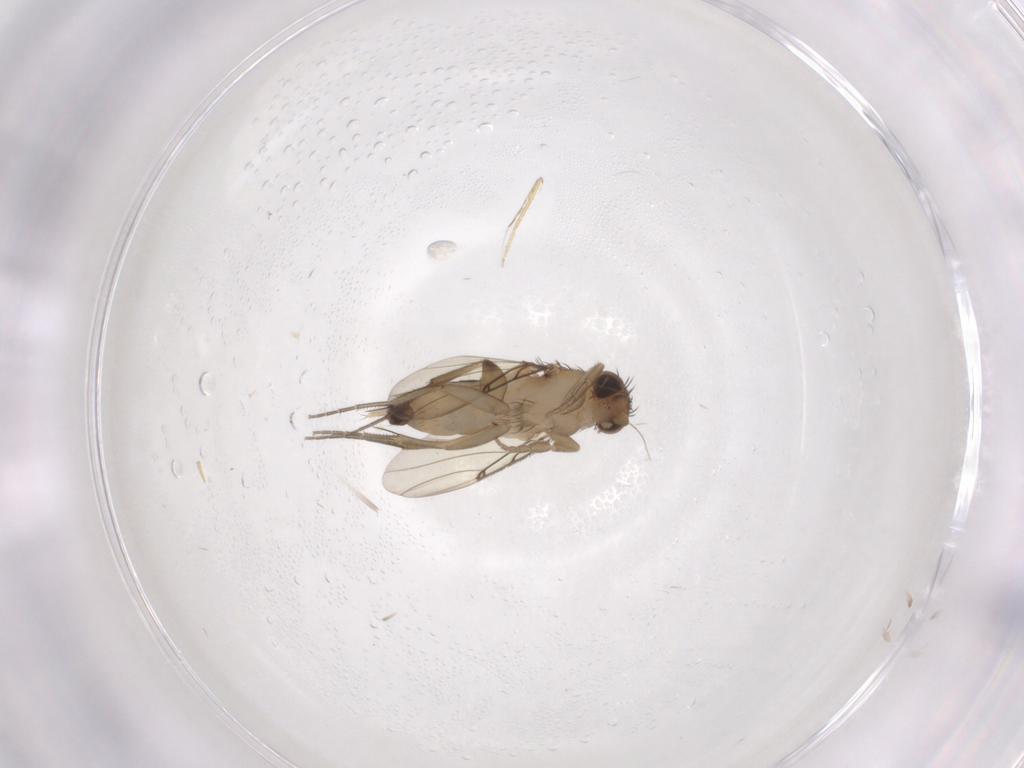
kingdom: Animalia
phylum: Arthropoda
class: Insecta
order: Diptera
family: Chironomidae
